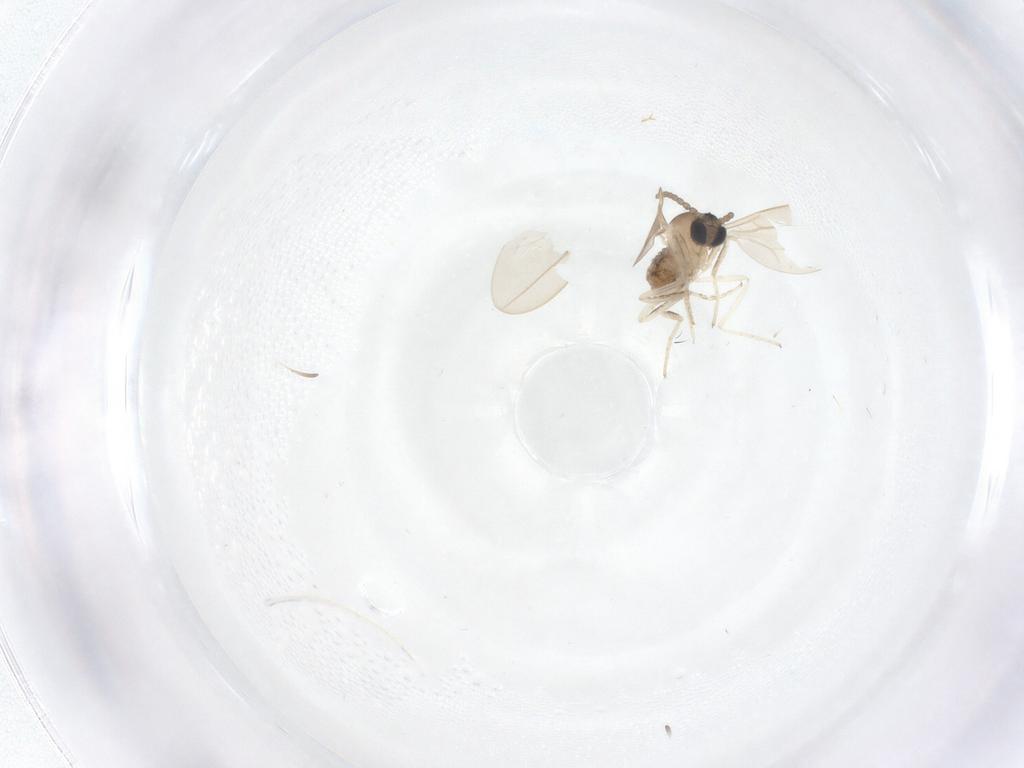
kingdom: Animalia
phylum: Arthropoda
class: Insecta
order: Diptera
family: Cecidomyiidae
